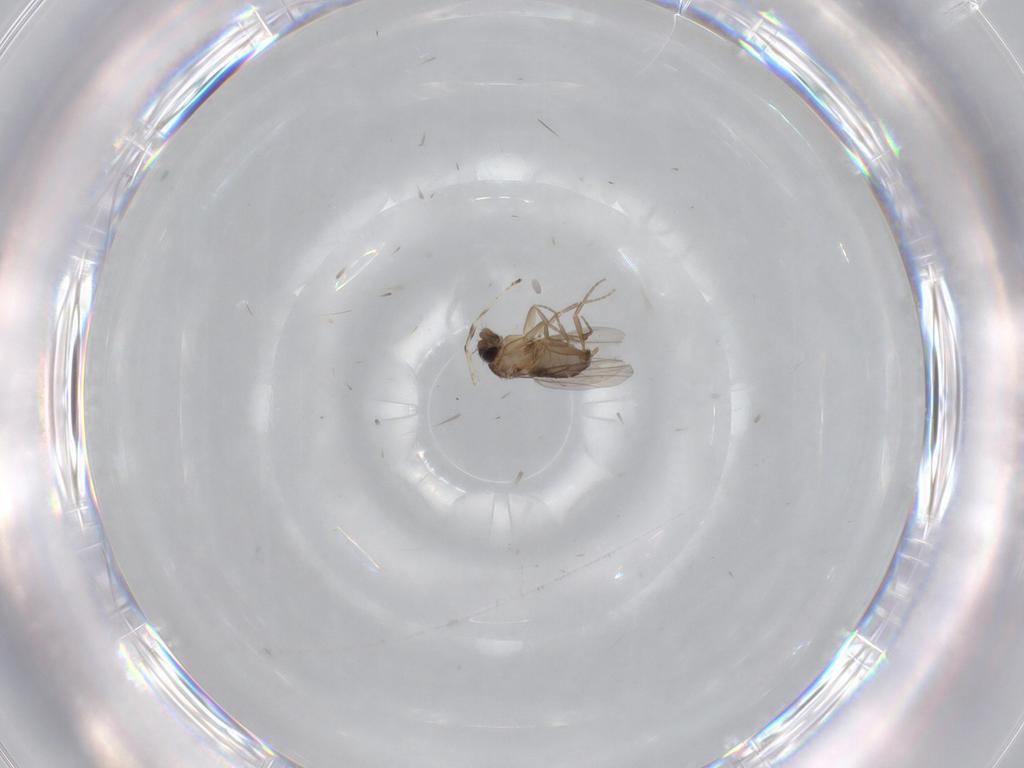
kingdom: Animalia
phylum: Arthropoda
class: Insecta
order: Diptera
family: Phoridae
